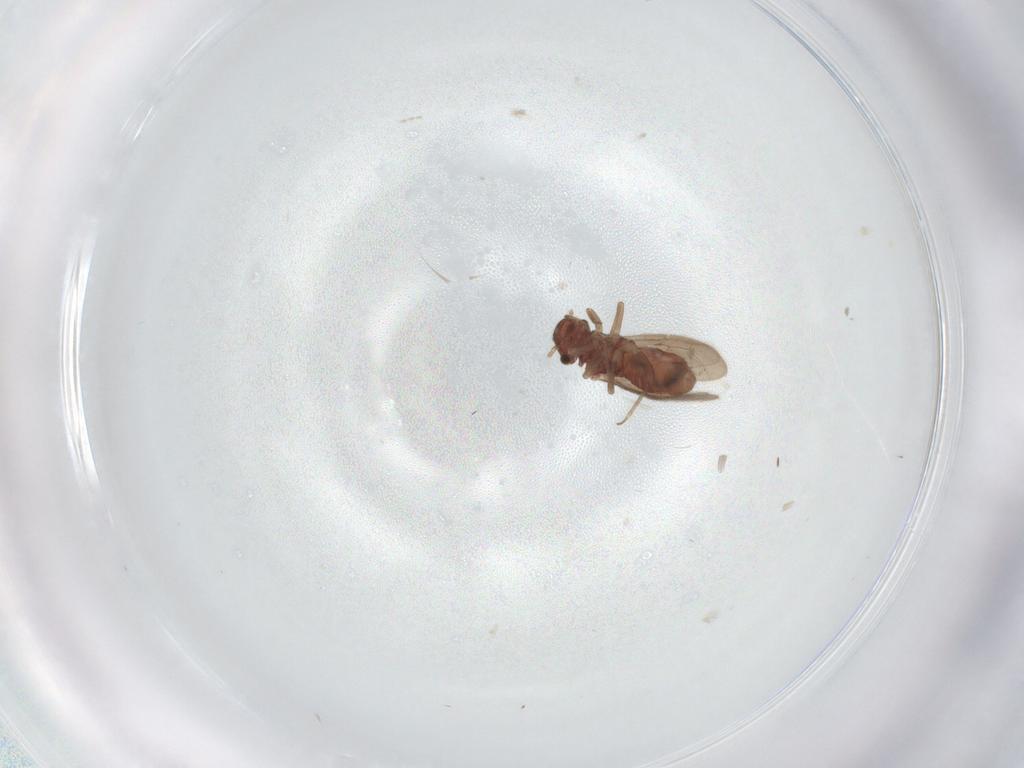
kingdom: Animalia
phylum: Arthropoda
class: Insecta
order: Psocodea
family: Archipsocidae
